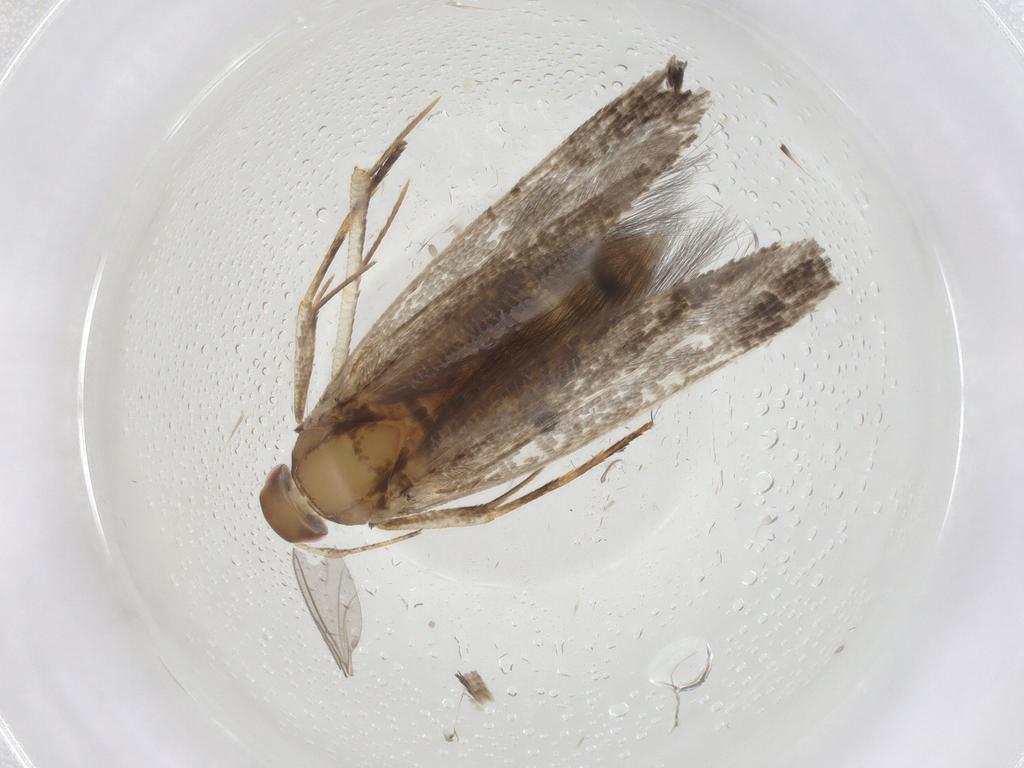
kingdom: Animalia
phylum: Arthropoda
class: Insecta
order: Lepidoptera
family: Cosmopterigidae
